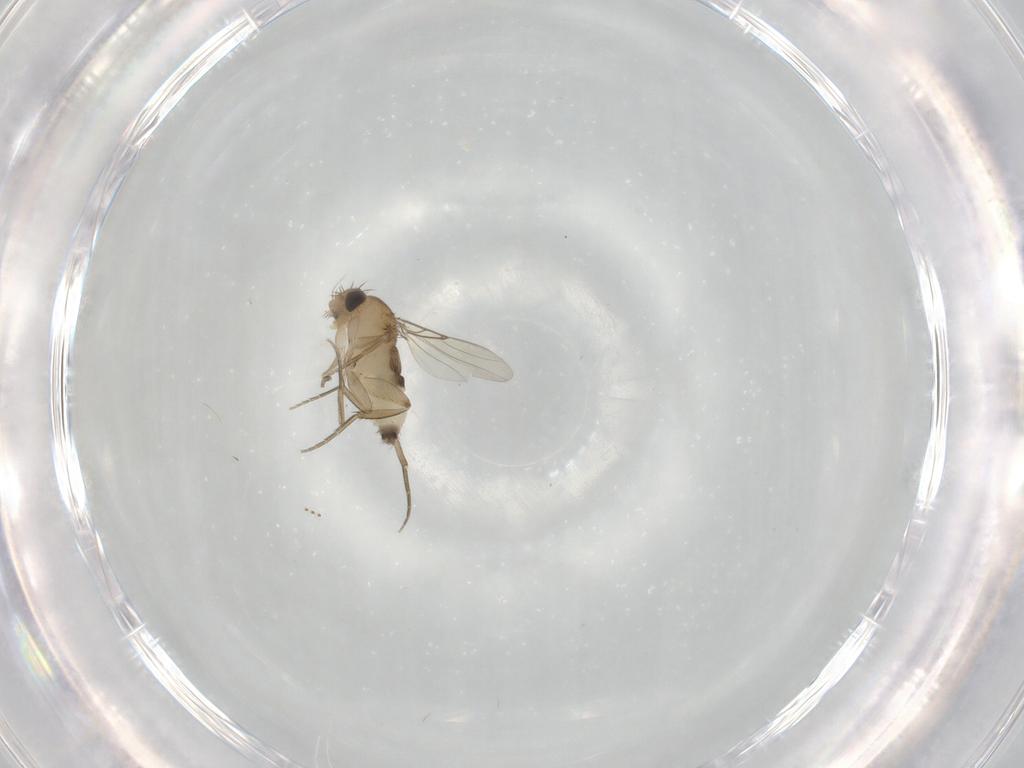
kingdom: Animalia
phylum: Arthropoda
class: Insecta
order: Diptera
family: Phoridae
